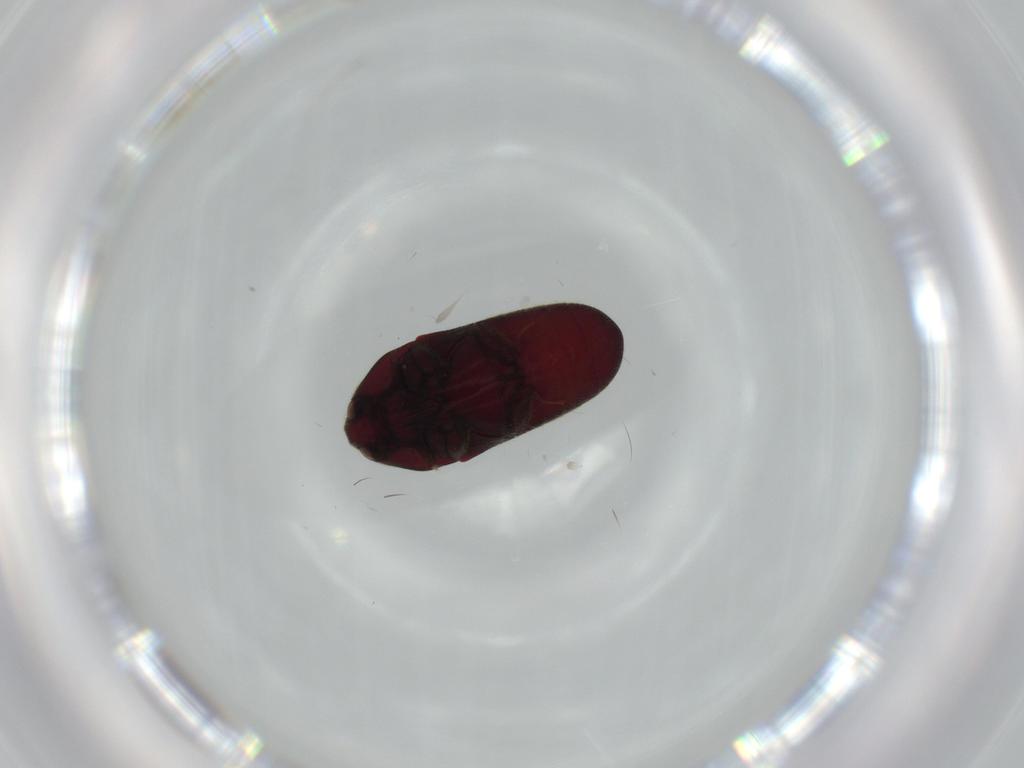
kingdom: Animalia
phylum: Arthropoda
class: Insecta
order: Coleoptera
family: Throscidae
